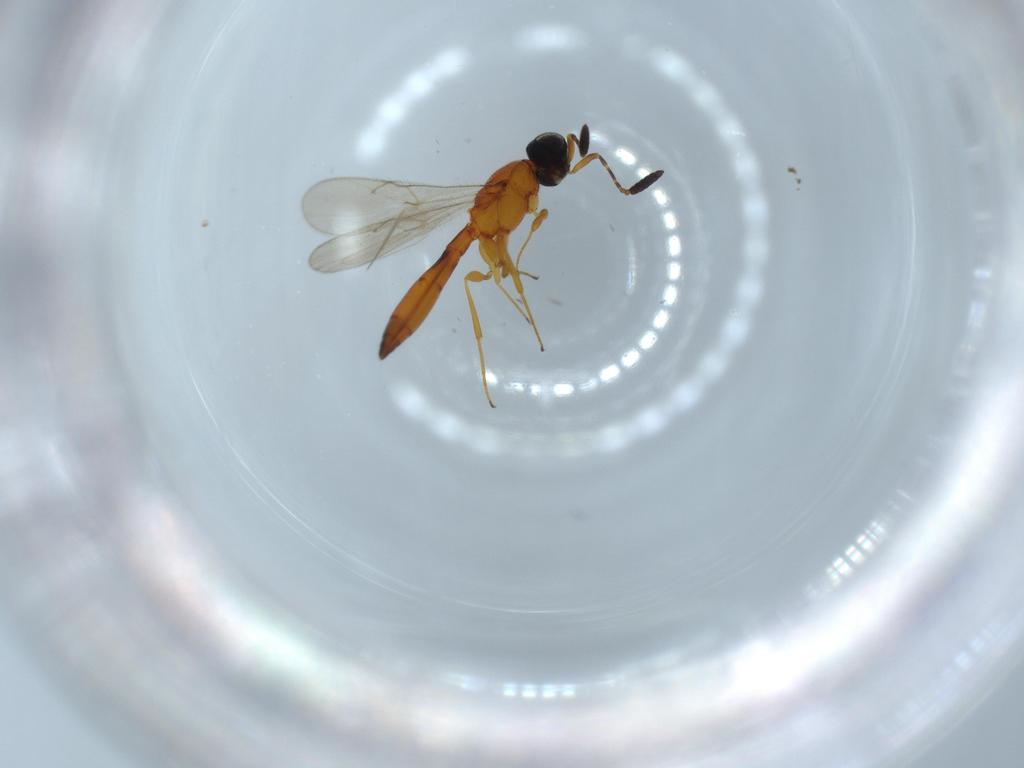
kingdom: Animalia
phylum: Arthropoda
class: Insecta
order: Hymenoptera
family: Scelionidae
